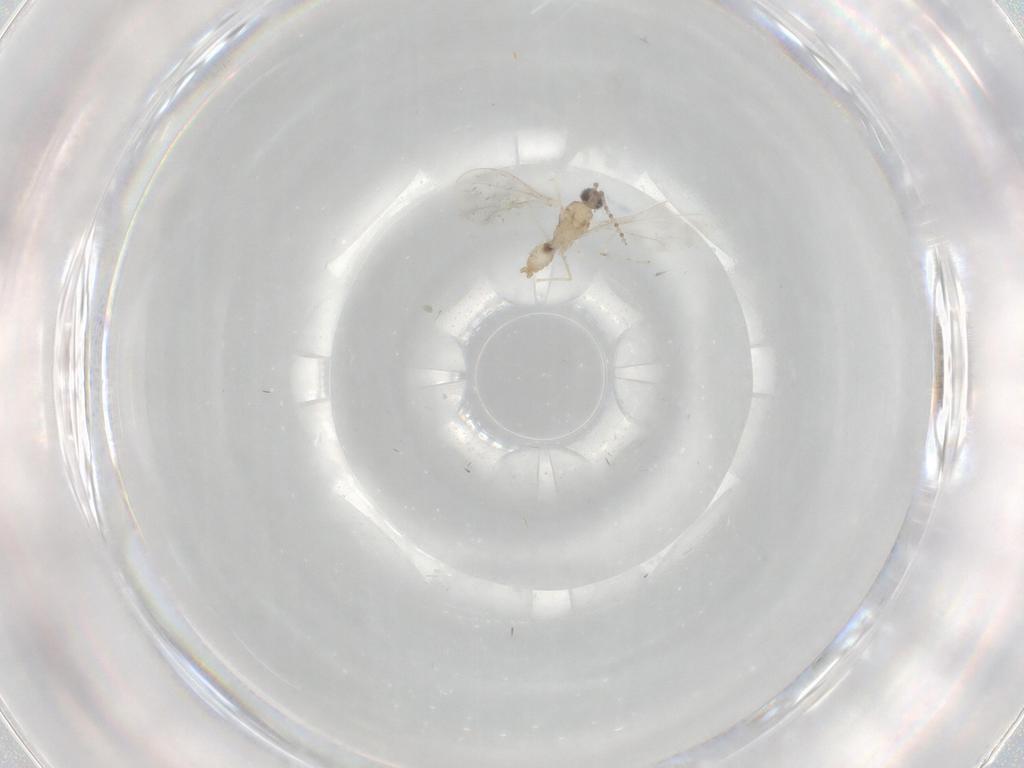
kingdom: Animalia
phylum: Arthropoda
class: Insecta
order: Diptera
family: Cecidomyiidae
